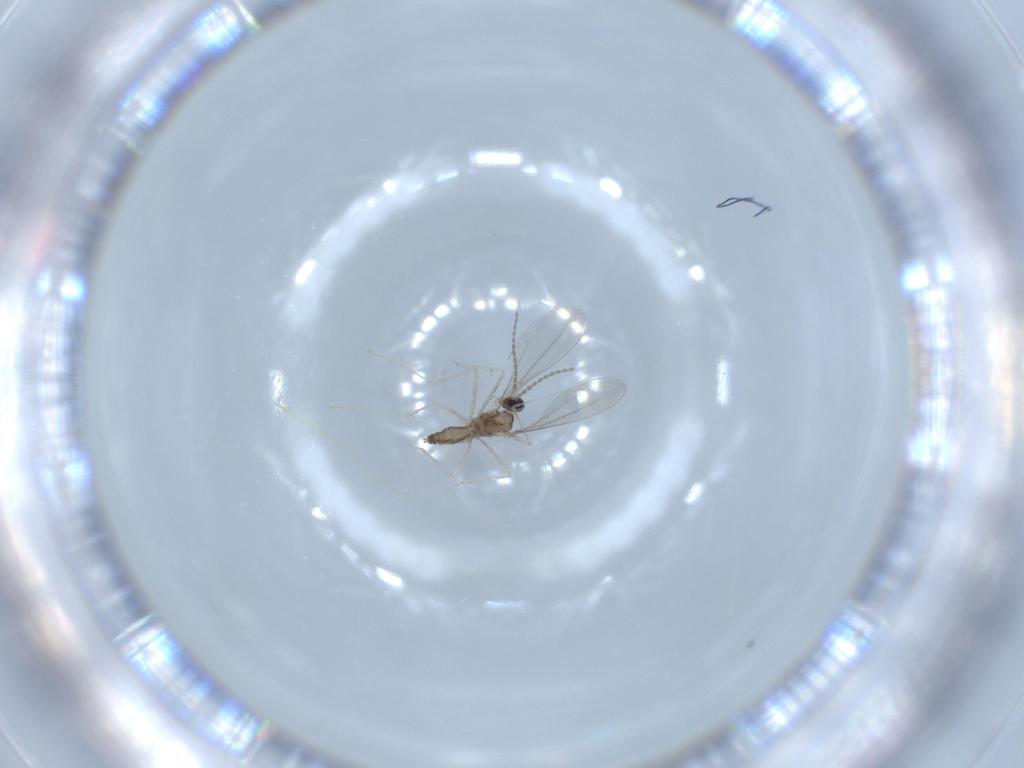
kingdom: Animalia
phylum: Arthropoda
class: Insecta
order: Diptera
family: Cecidomyiidae
